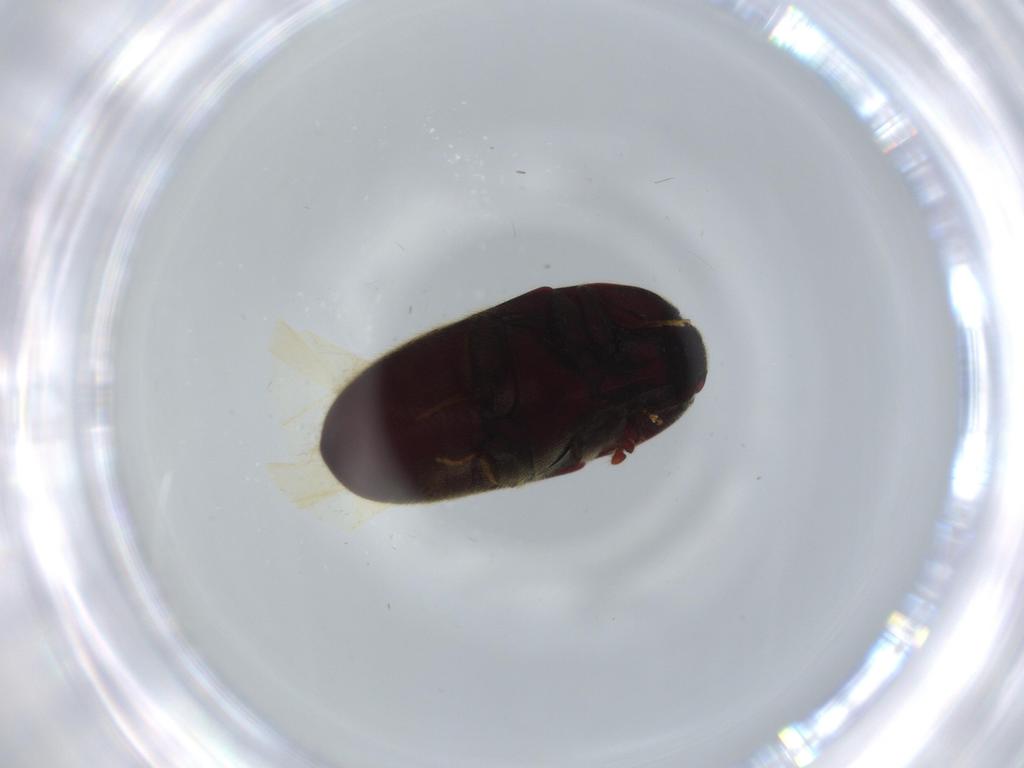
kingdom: Animalia
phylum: Arthropoda
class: Insecta
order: Coleoptera
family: Throscidae
